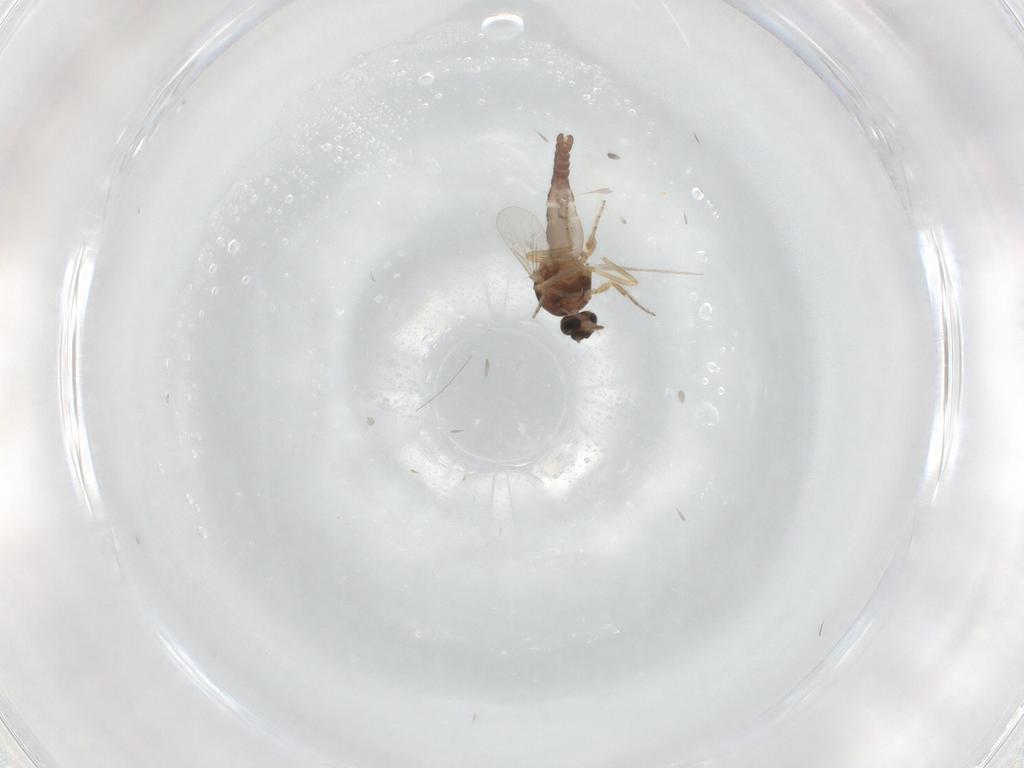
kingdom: Animalia
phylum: Arthropoda
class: Insecta
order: Diptera
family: Ceratopogonidae
